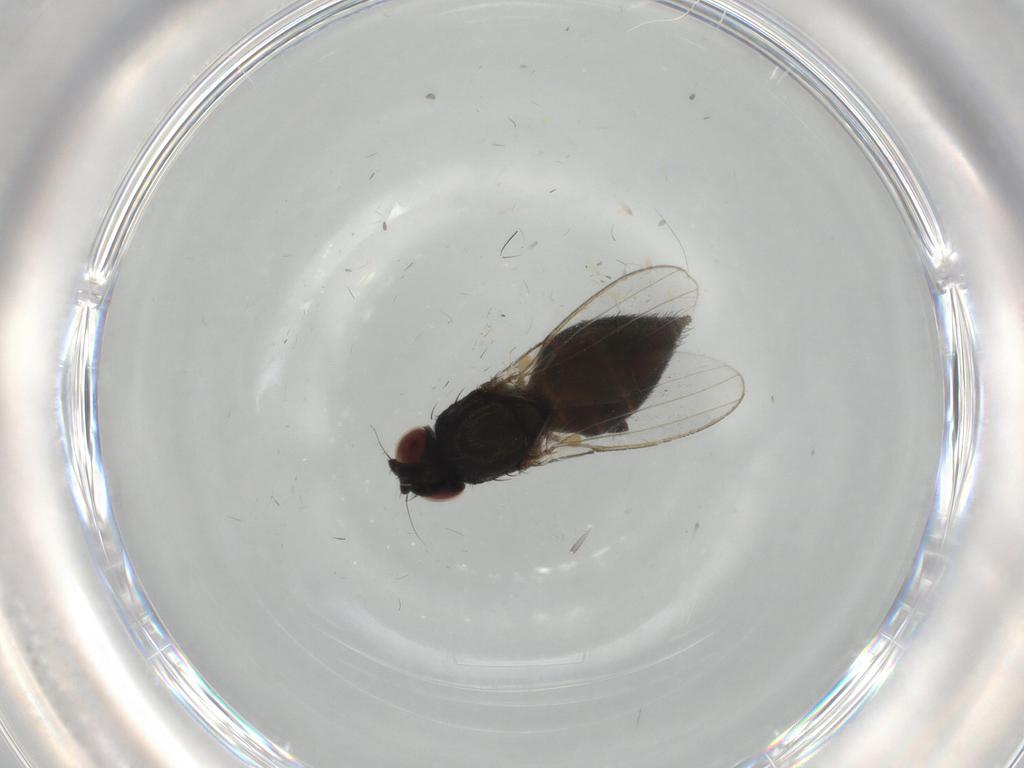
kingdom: Animalia
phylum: Arthropoda
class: Insecta
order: Diptera
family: Milichiidae
